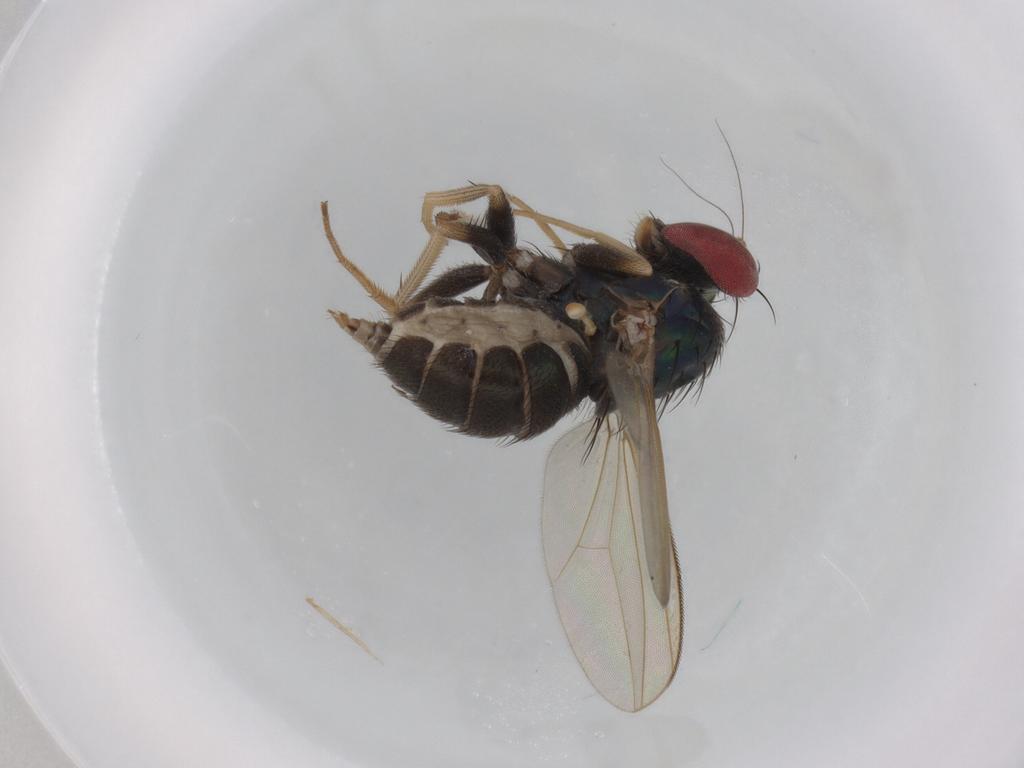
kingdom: Animalia
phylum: Arthropoda
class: Insecta
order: Diptera
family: Dolichopodidae
